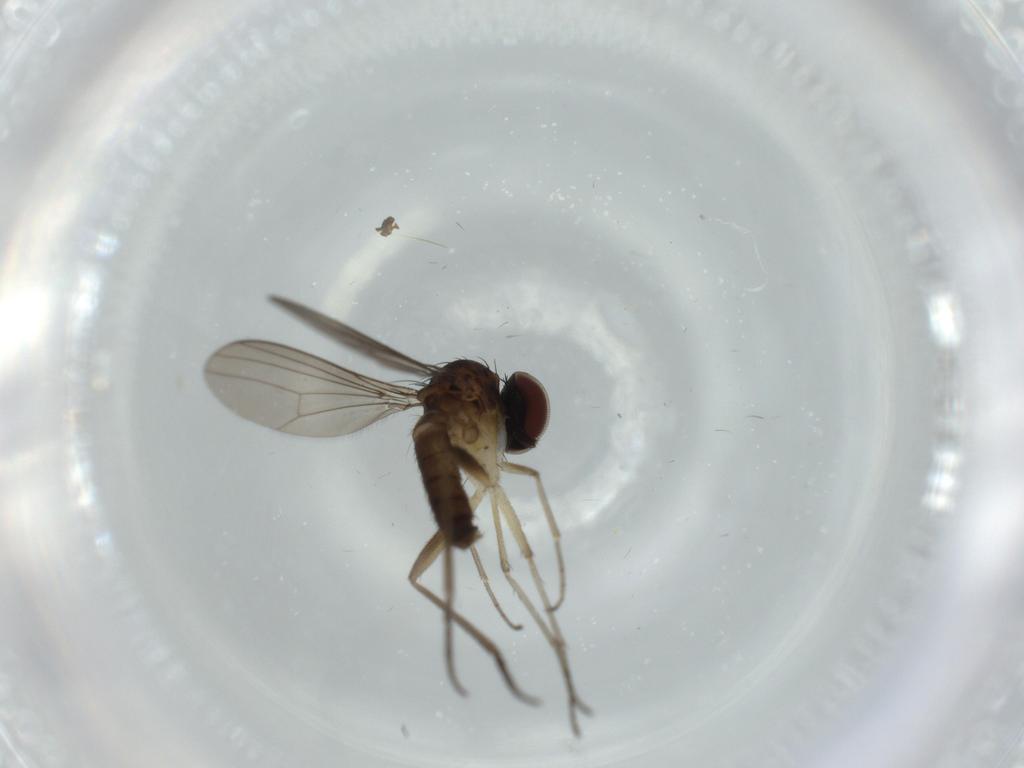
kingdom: Animalia
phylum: Arthropoda
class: Insecta
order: Diptera
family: Dolichopodidae
